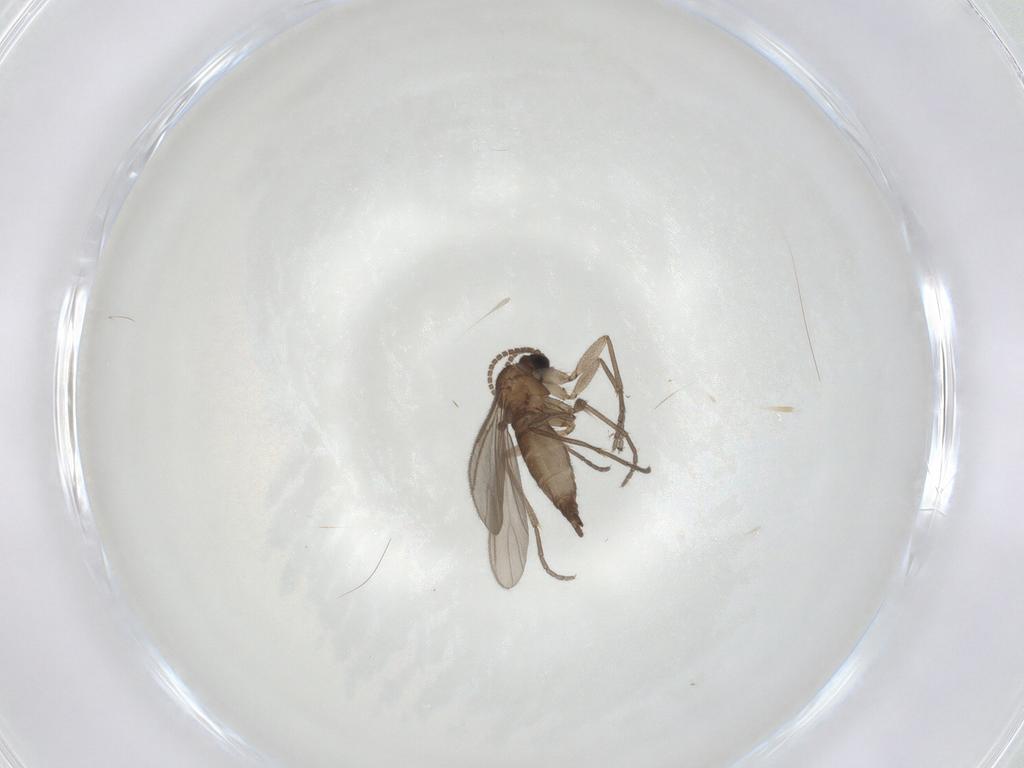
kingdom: Animalia
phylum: Arthropoda
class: Insecta
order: Diptera
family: Sciaridae
